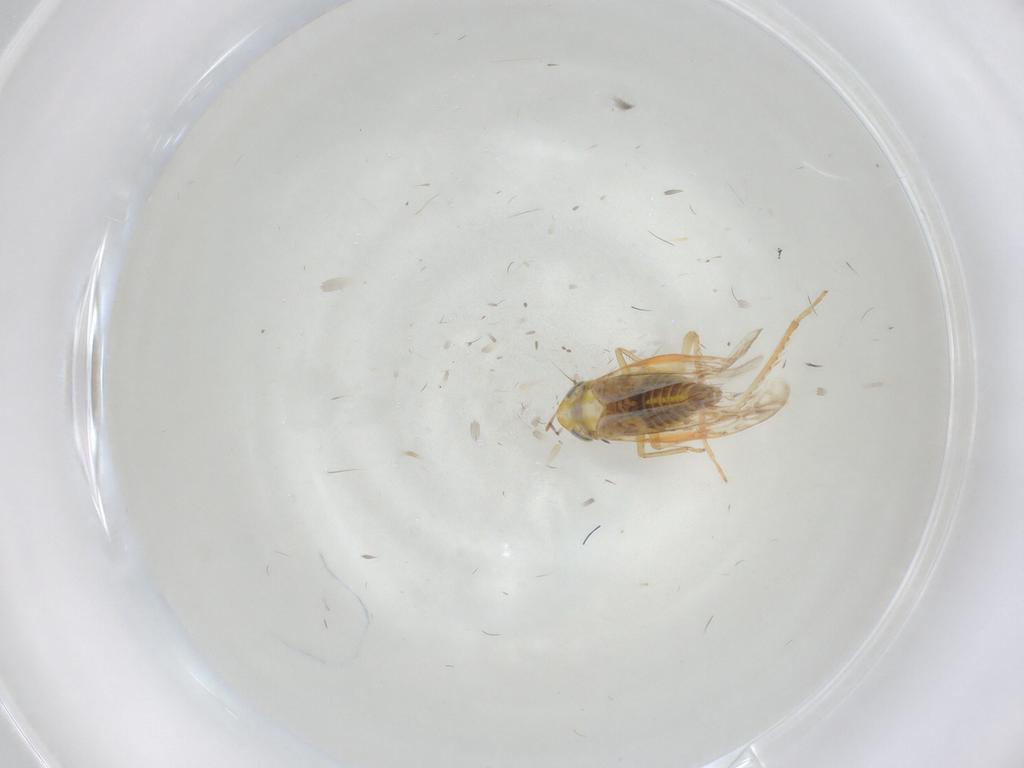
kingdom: Animalia
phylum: Arthropoda
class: Insecta
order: Hemiptera
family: Cicadellidae
